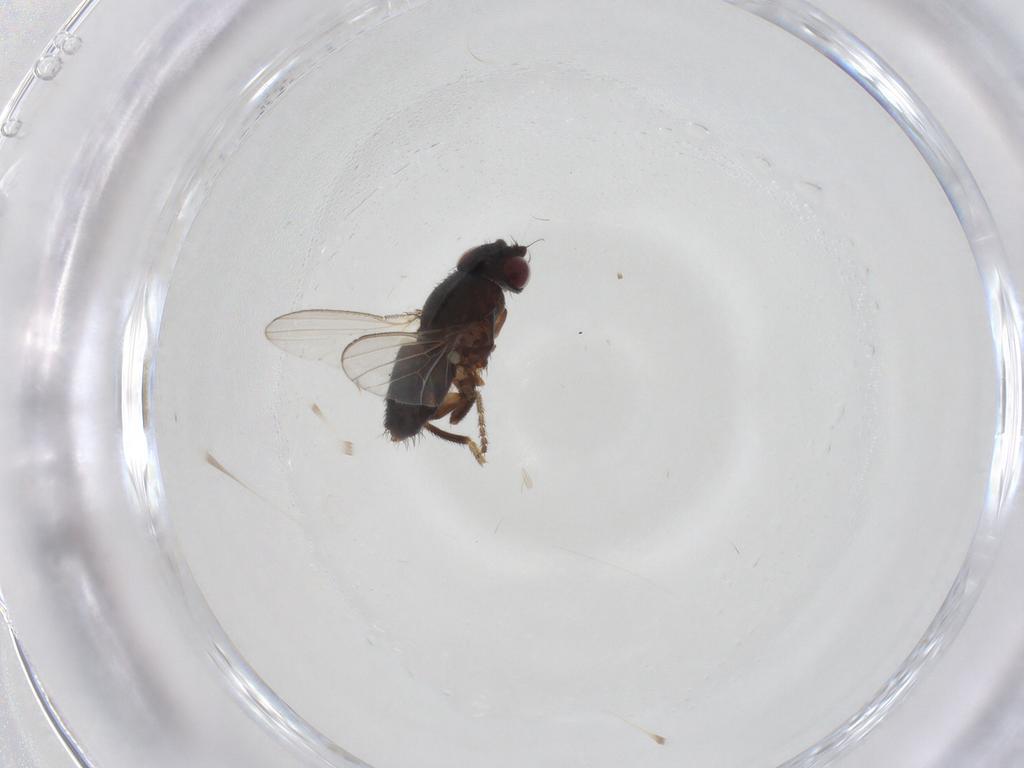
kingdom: Animalia
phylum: Arthropoda
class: Insecta
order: Diptera
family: Milichiidae
